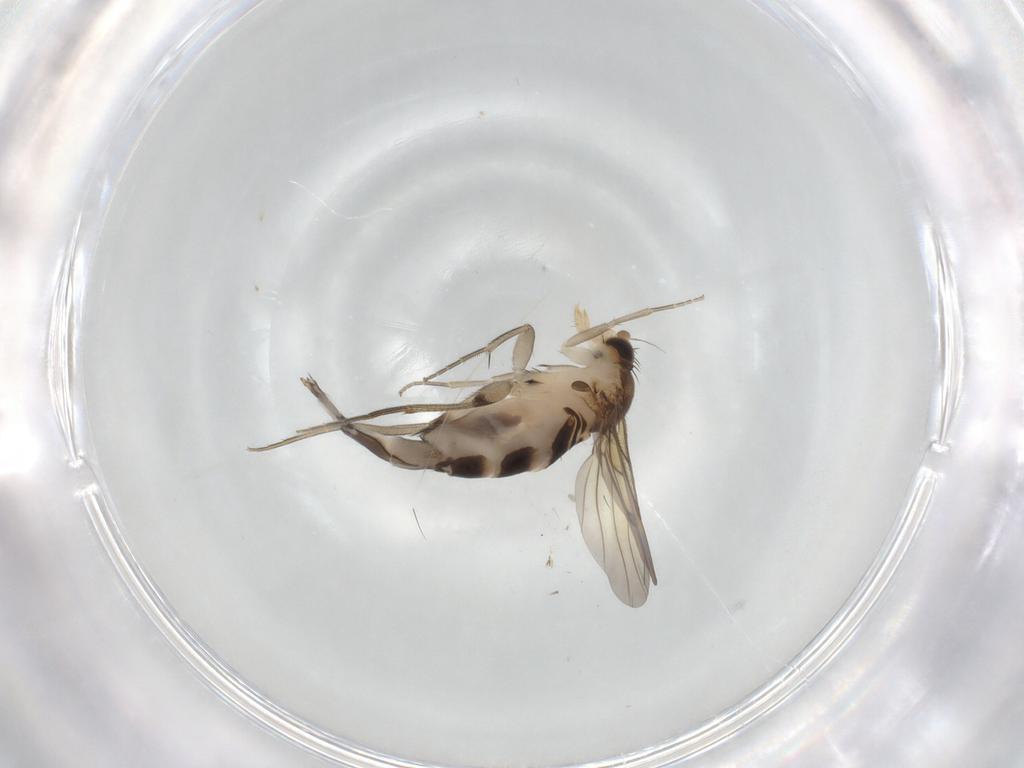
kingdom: Animalia
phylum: Arthropoda
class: Insecta
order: Diptera
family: Phoridae
